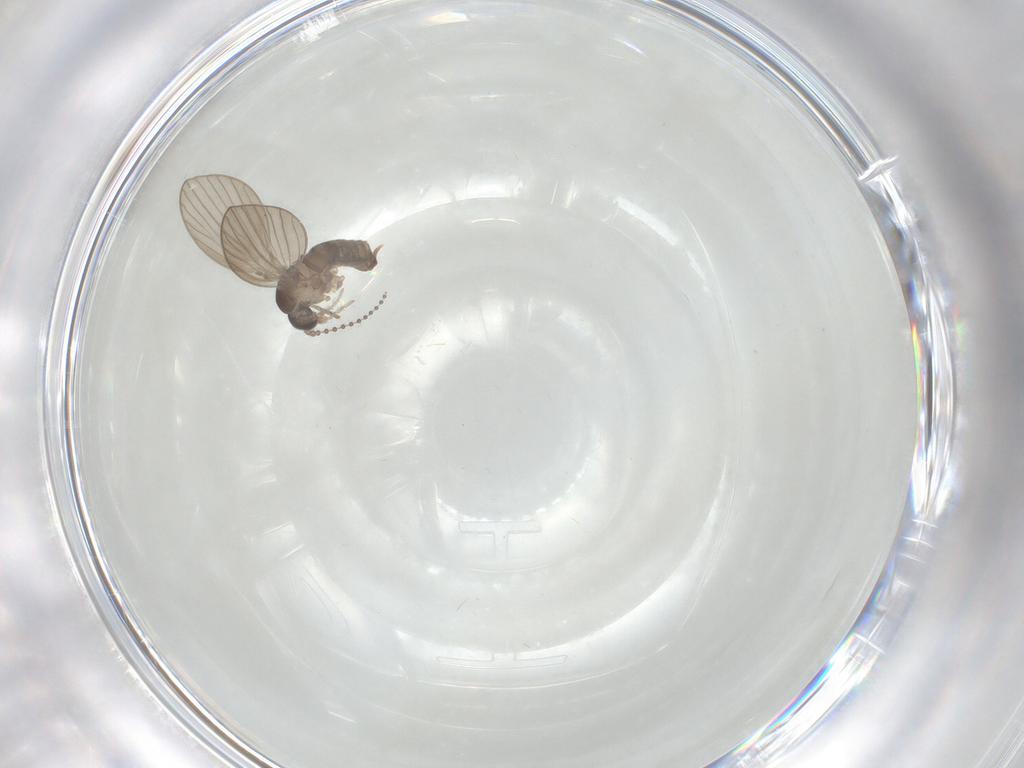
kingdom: Animalia
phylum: Arthropoda
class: Insecta
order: Diptera
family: Psychodidae
